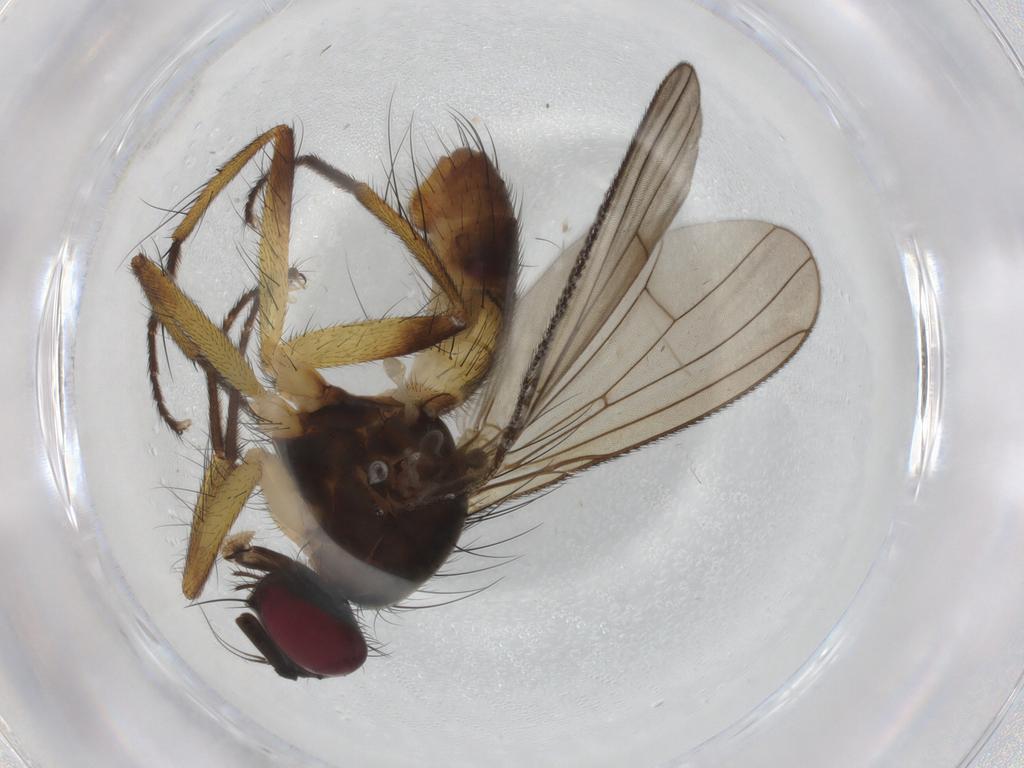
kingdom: Animalia
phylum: Arthropoda
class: Insecta
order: Diptera
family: Muscidae
